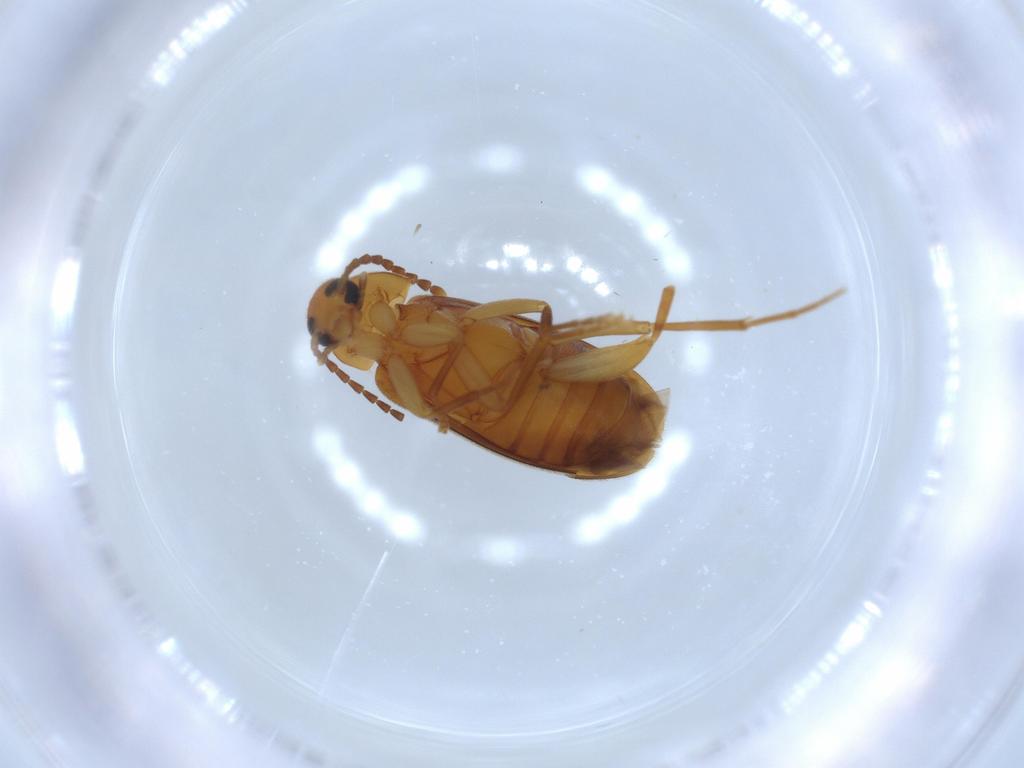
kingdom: Animalia
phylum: Arthropoda
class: Insecta
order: Coleoptera
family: Scraptiidae
